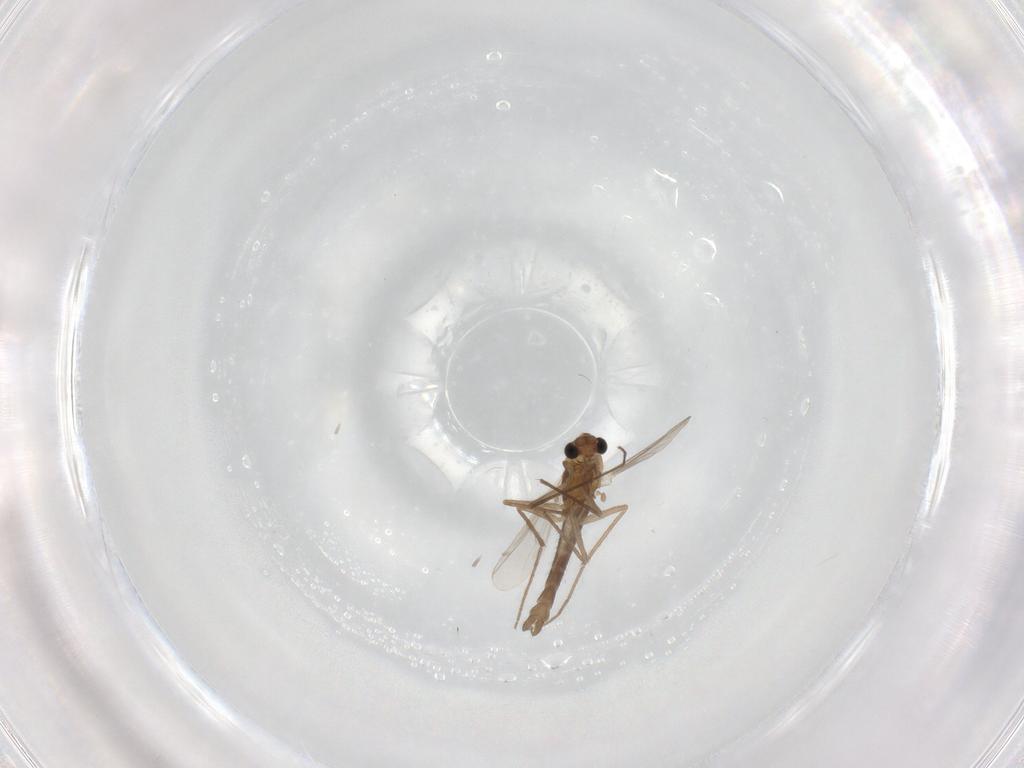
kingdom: Animalia
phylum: Arthropoda
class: Insecta
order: Diptera
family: Chironomidae
